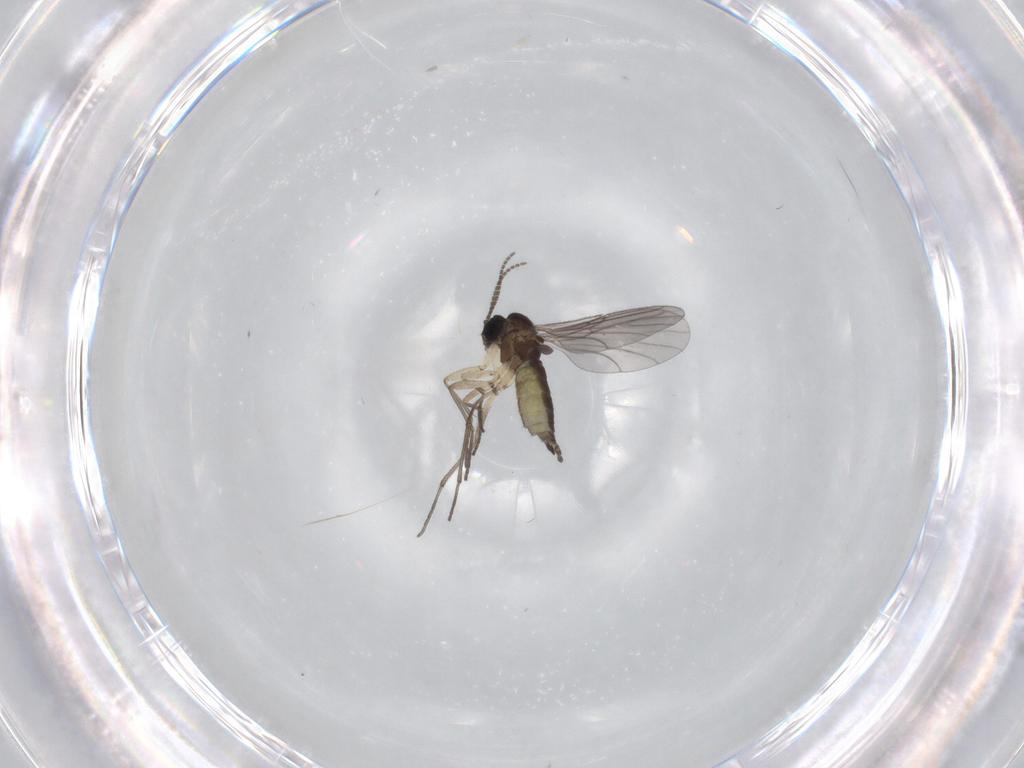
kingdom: Animalia
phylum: Arthropoda
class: Insecta
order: Diptera
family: Sciaridae
